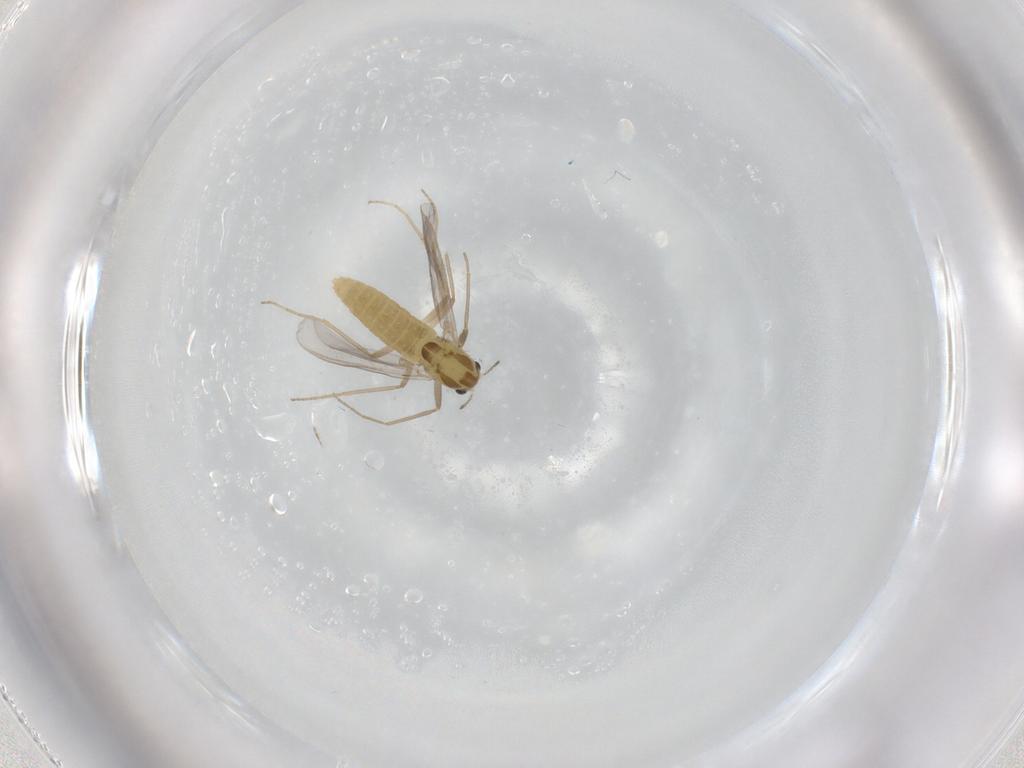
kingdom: Animalia
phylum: Arthropoda
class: Insecta
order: Diptera
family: Chironomidae
